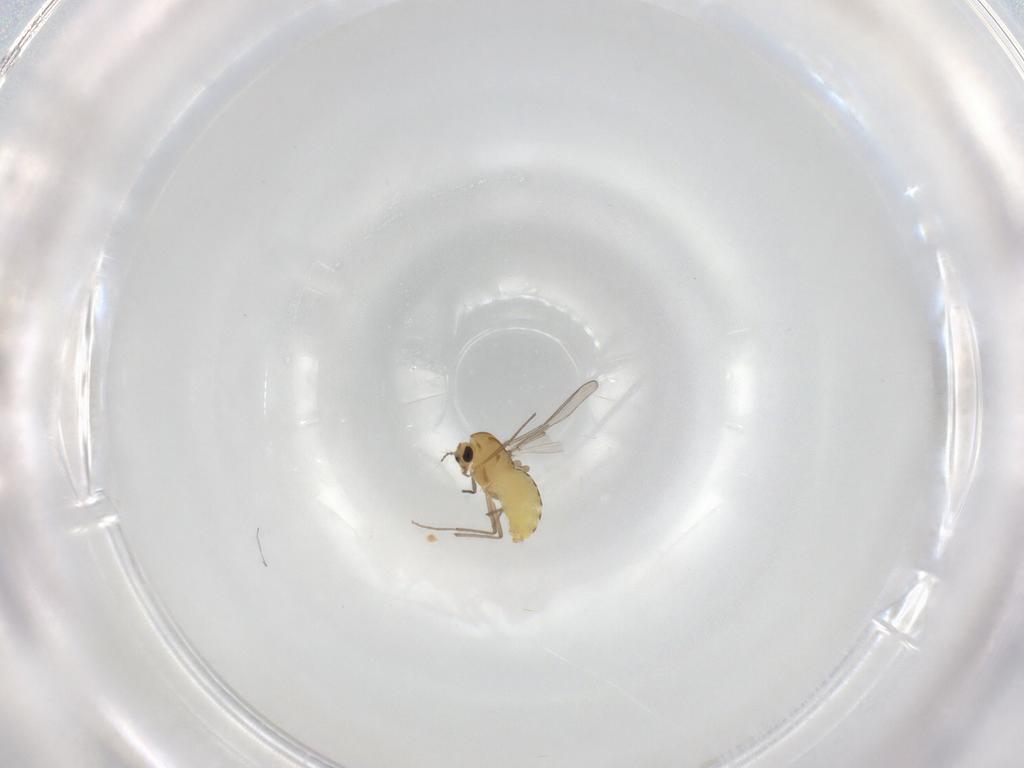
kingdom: Animalia
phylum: Arthropoda
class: Insecta
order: Diptera
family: Chironomidae
